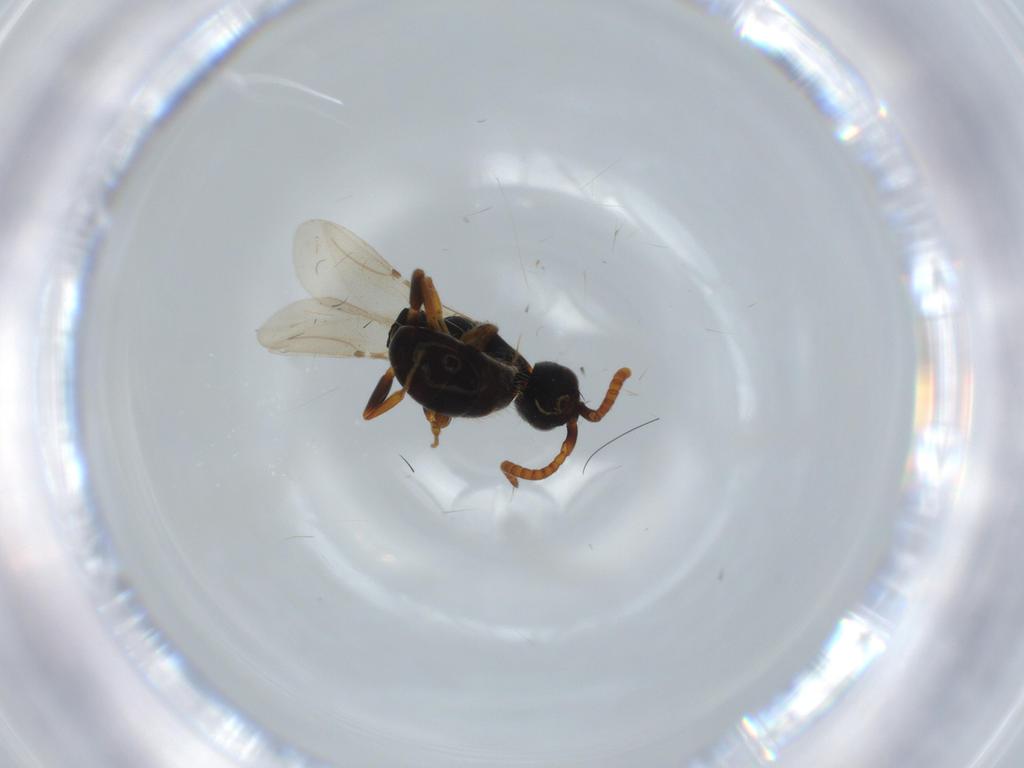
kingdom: Animalia
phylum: Arthropoda
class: Insecta
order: Hymenoptera
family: Bethylidae
